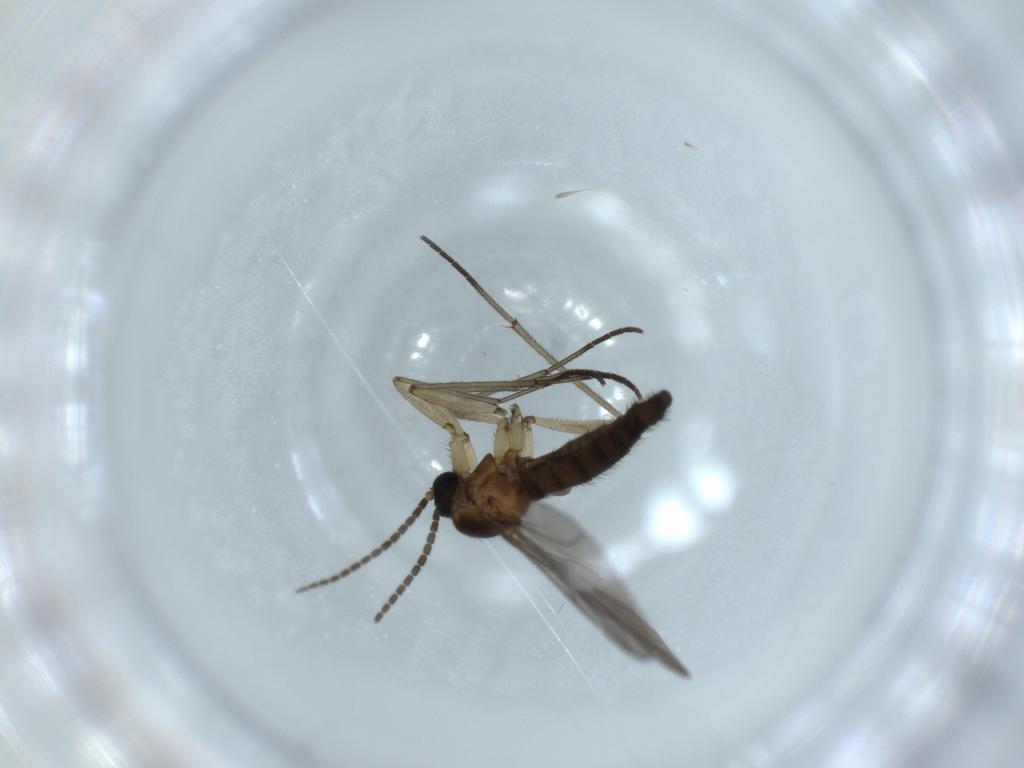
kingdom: Animalia
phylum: Arthropoda
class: Insecta
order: Diptera
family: Sciaridae
